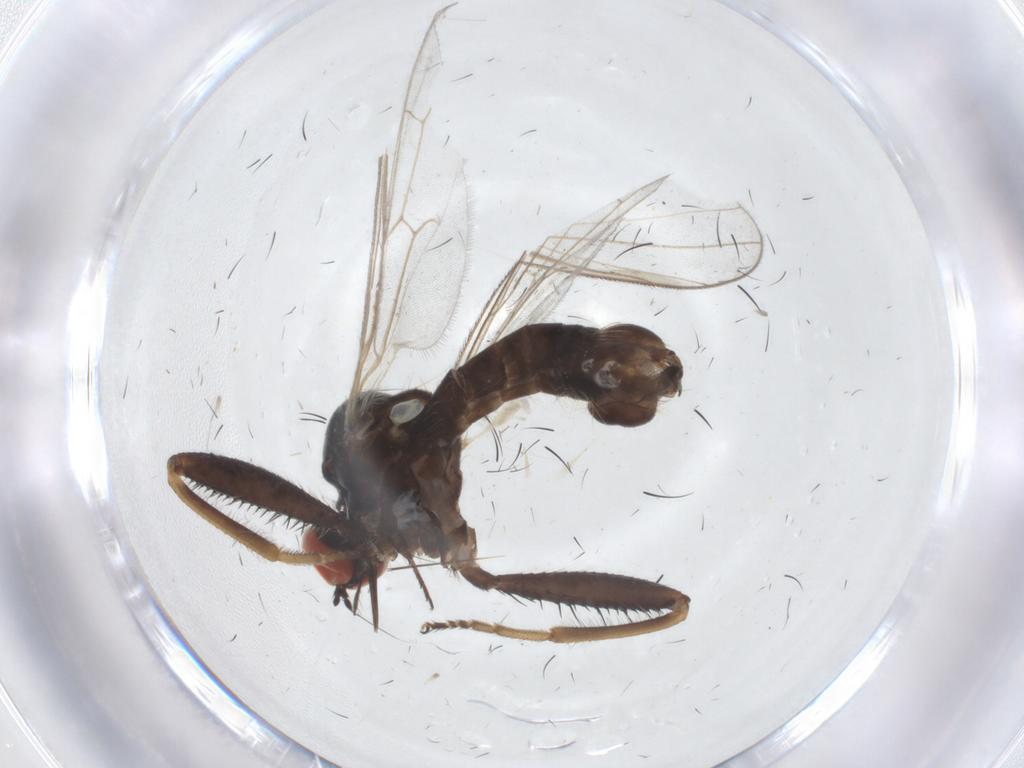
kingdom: Animalia
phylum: Arthropoda
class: Insecta
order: Diptera
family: Hybotidae
